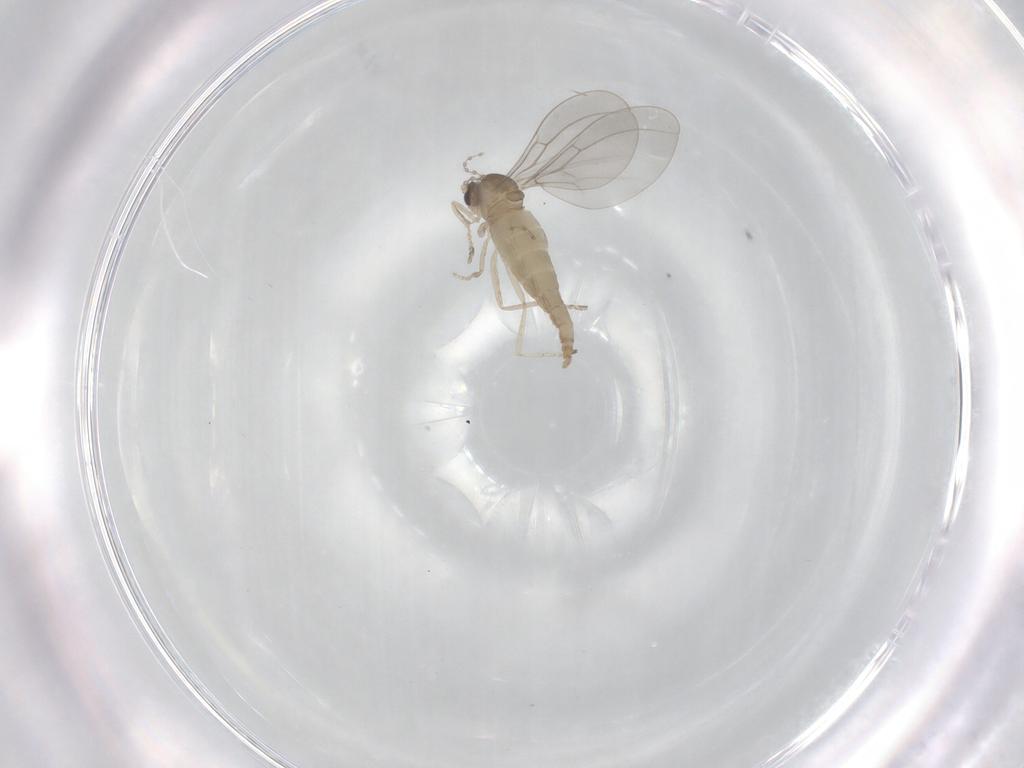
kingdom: Animalia
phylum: Arthropoda
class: Insecta
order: Diptera
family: Cecidomyiidae
